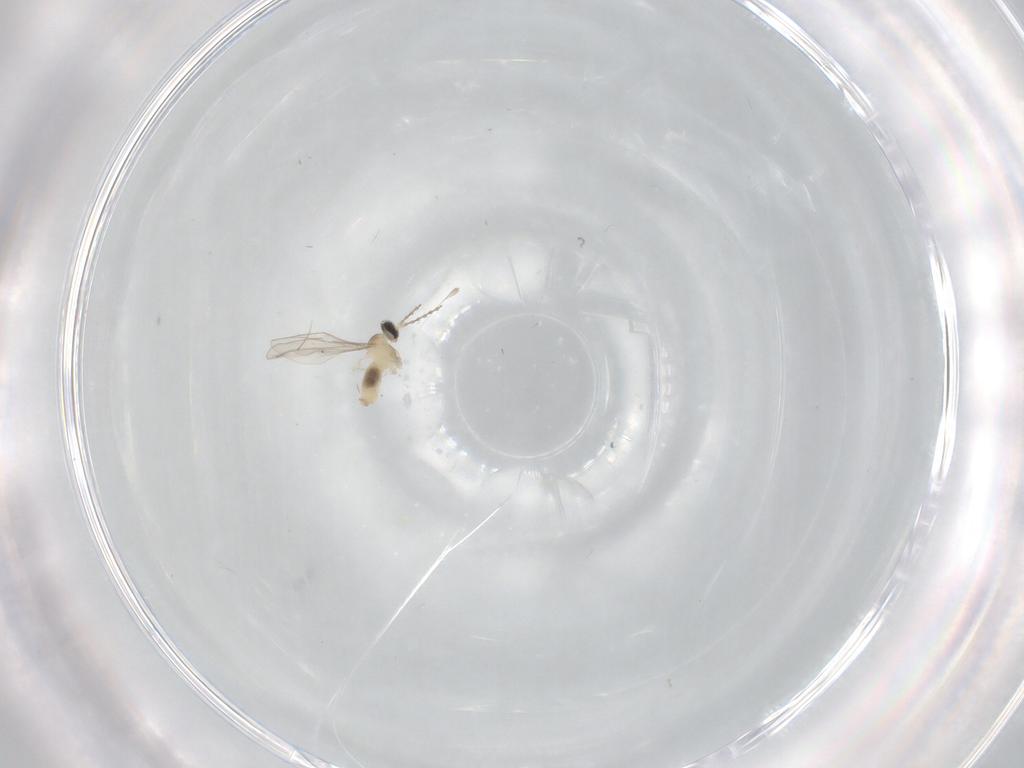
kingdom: Animalia
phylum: Arthropoda
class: Insecta
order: Diptera
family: Cecidomyiidae
